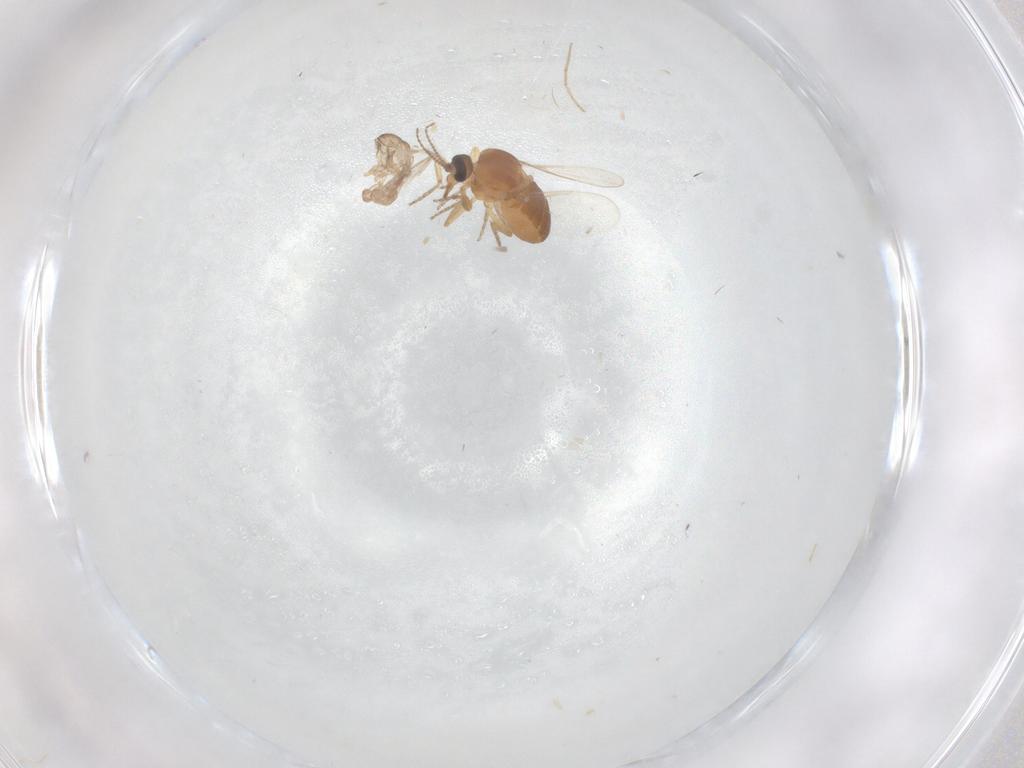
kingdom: Animalia
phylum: Arthropoda
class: Insecta
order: Diptera
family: Ceratopogonidae
